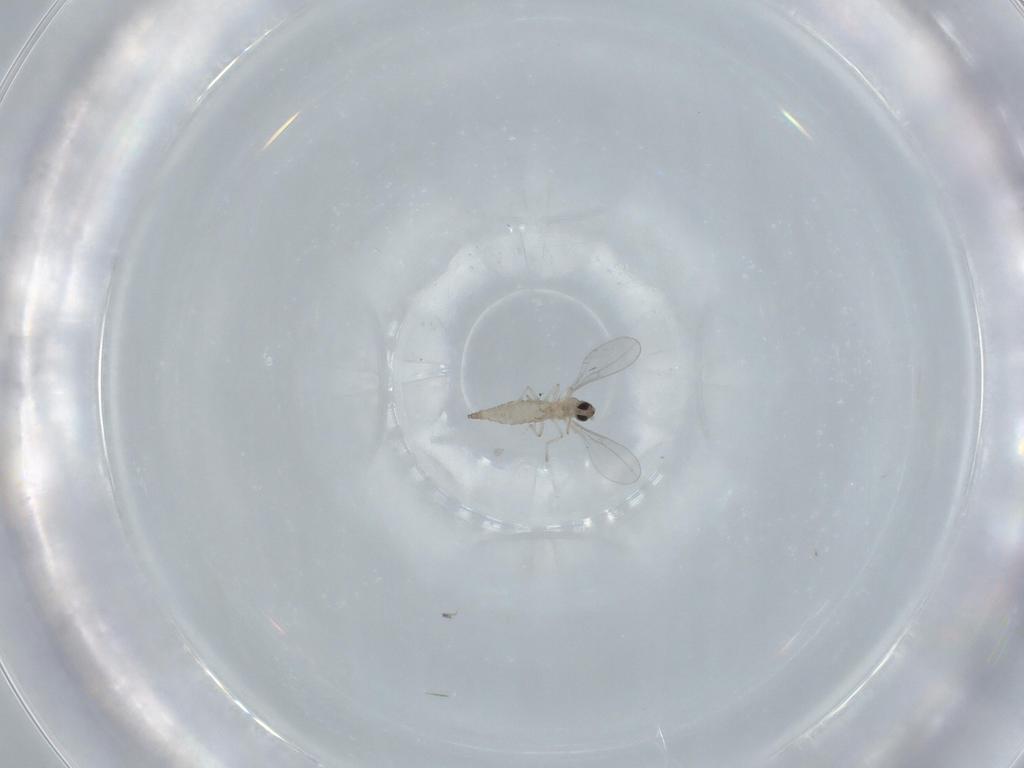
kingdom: Animalia
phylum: Arthropoda
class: Insecta
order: Diptera
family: Cecidomyiidae
